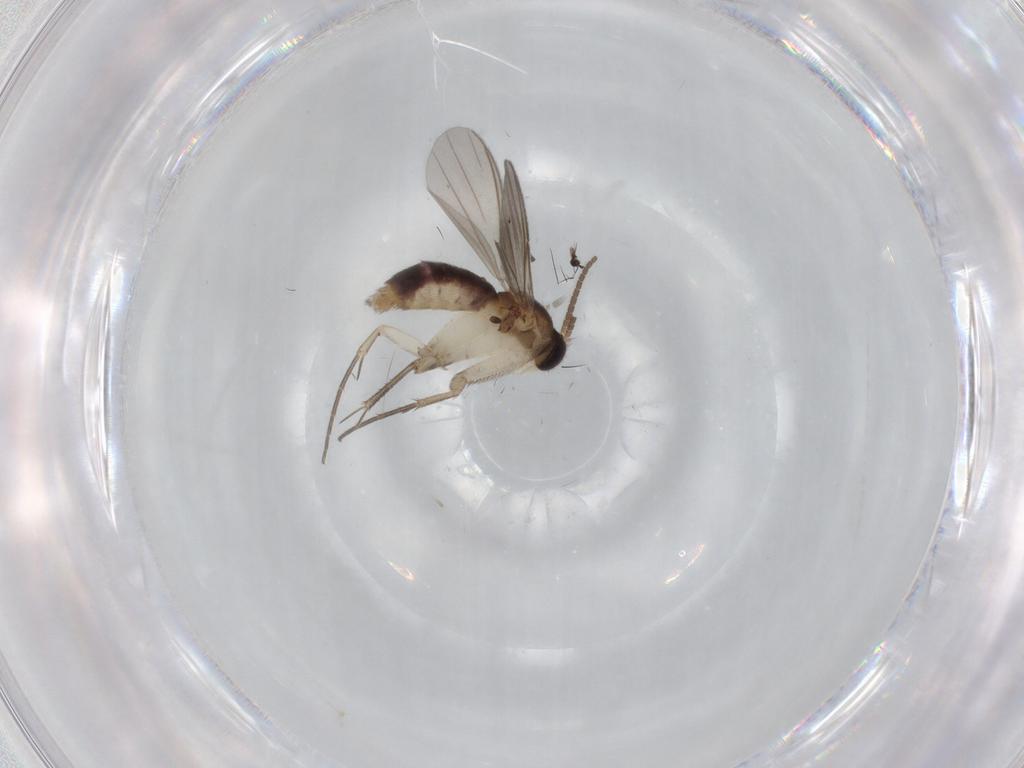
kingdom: Animalia
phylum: Arthropoda
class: Insecta
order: Diptera
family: Mycetophilidae
